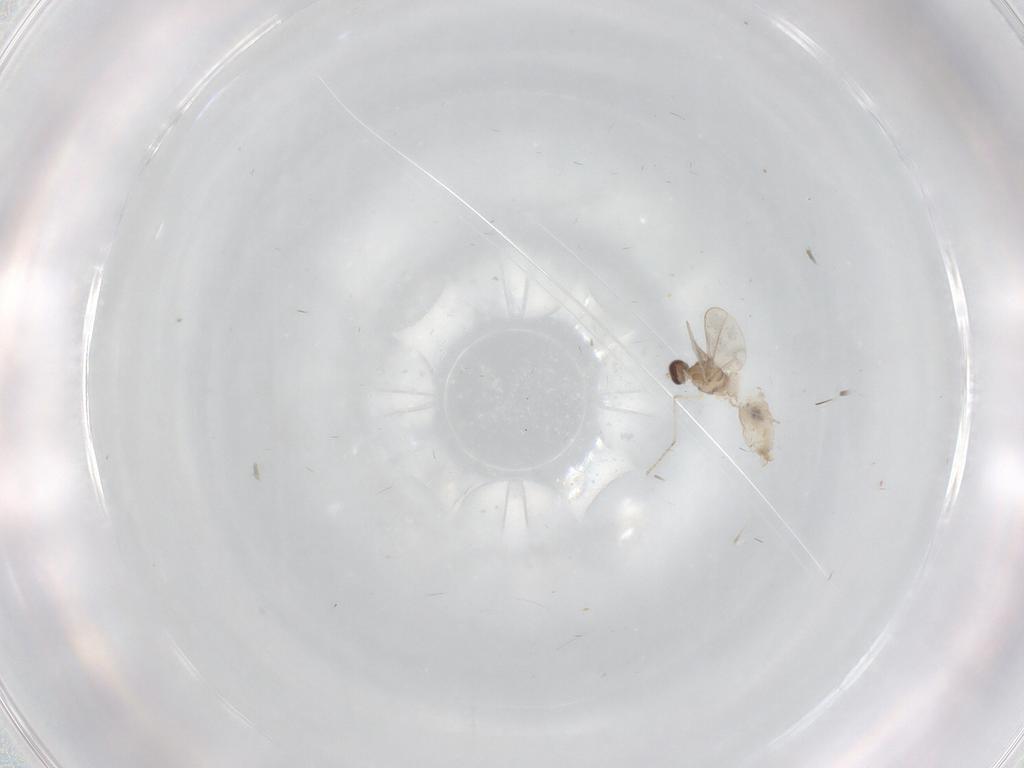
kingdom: Animalia
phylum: Arthropoda
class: Insecta
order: Diptera
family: Cecidomyiidae
